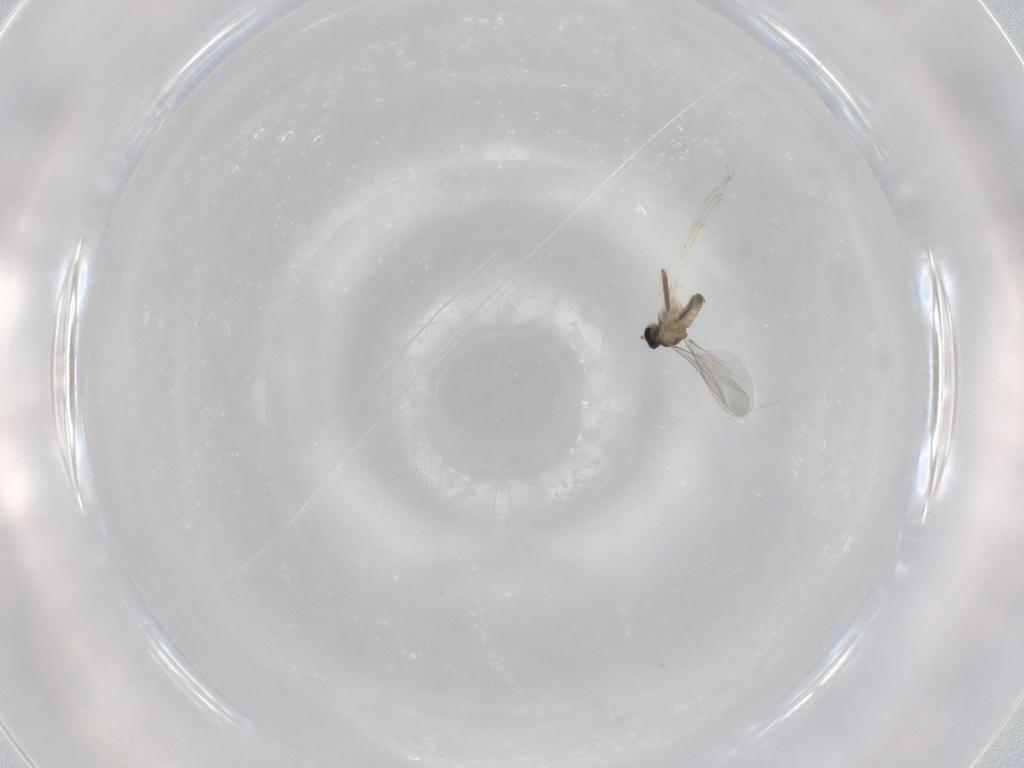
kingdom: Animalia
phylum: Arthropoda
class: Insecta
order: Diptera
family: Cecidomyiidae
